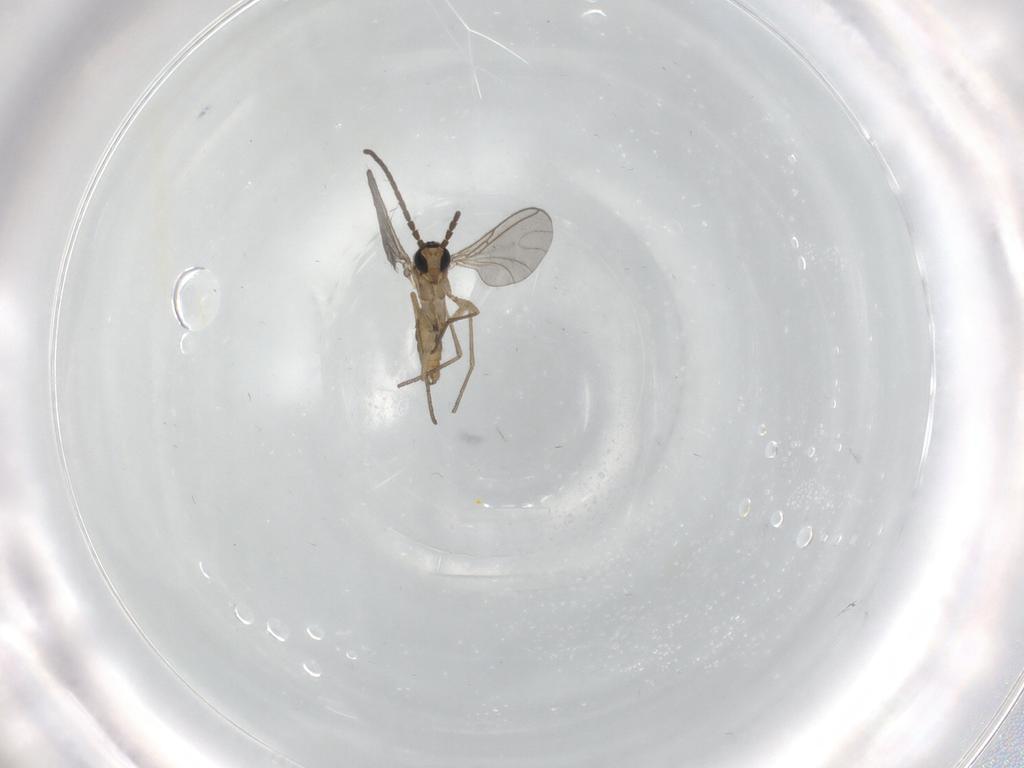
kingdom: Animalia
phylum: Arthropoda
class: Insecta
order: Diptera
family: Sciaridae
